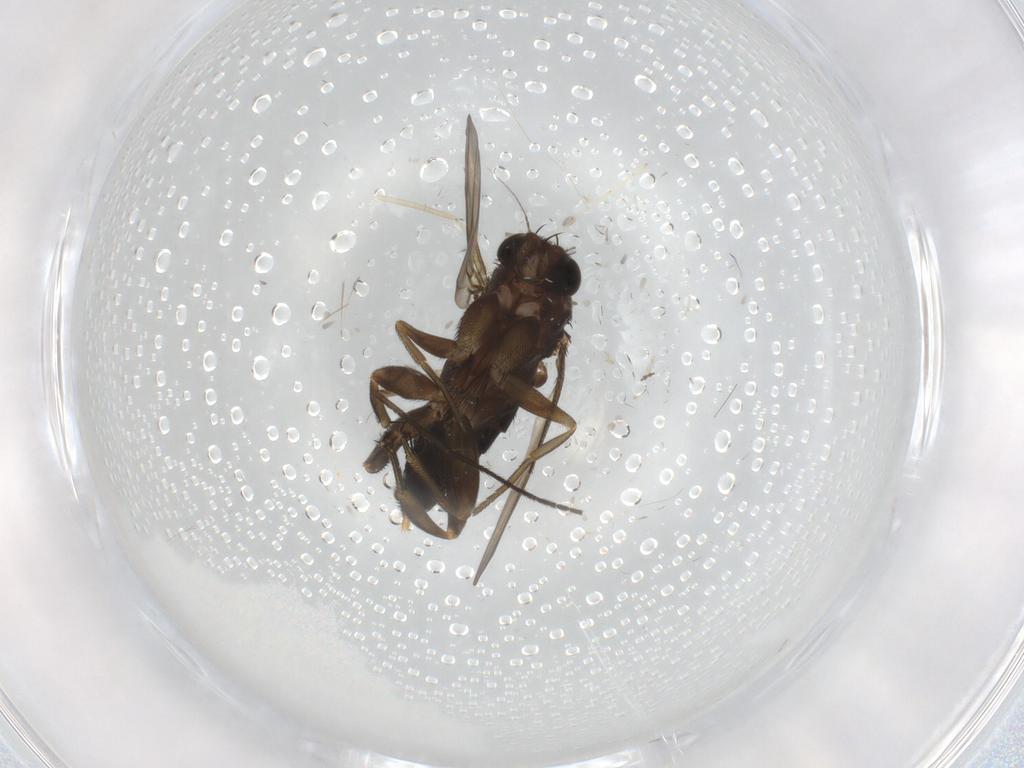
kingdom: Animalia
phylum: Arthropoda
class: Insecta
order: Diptera
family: Phoridae
